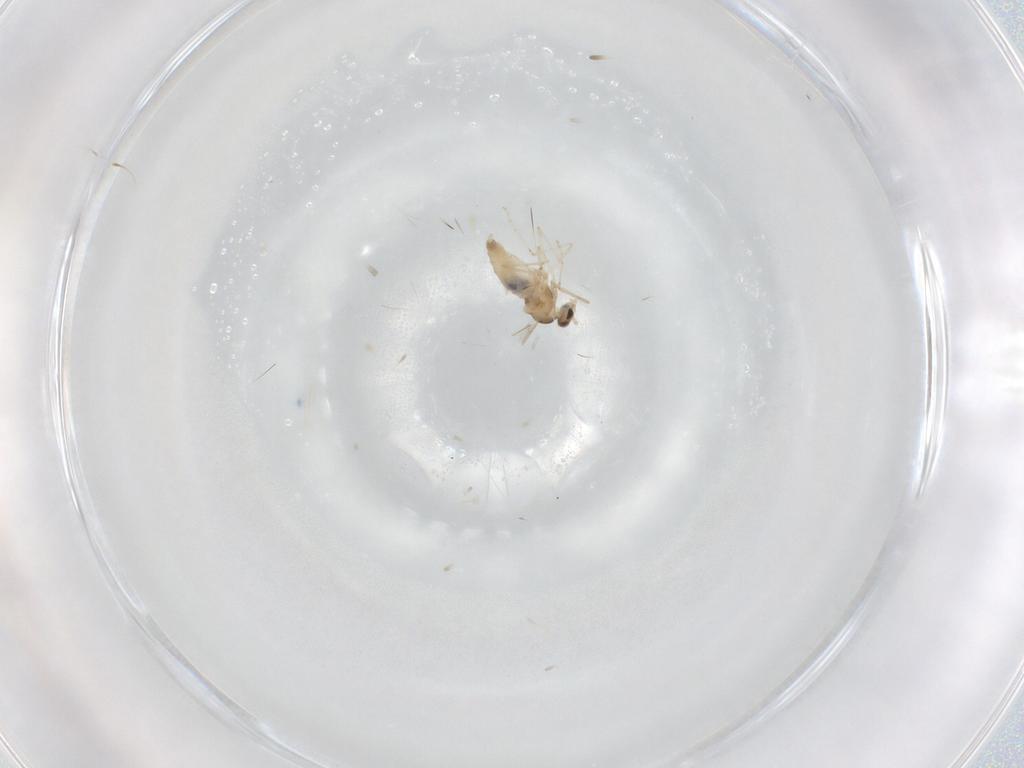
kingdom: Animalia
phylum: Arthropoda
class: Insecta
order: Diptera
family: Cecidomyiidae
